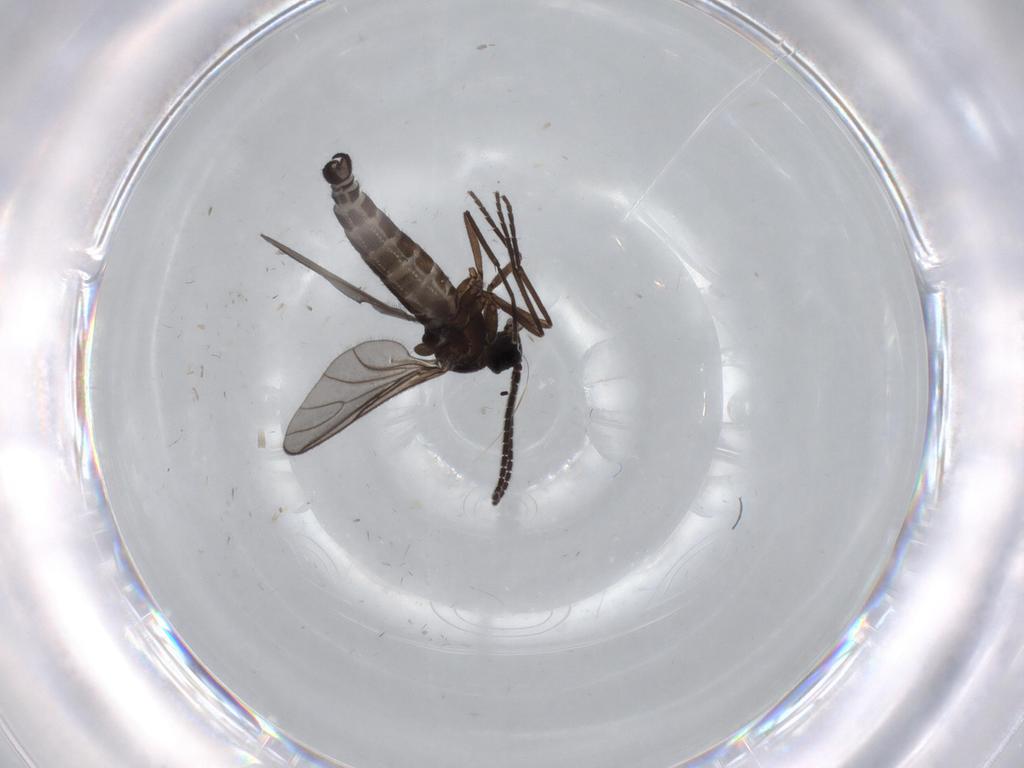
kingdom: Animalia
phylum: Arthropoda
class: Insecta
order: Diptera
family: Sciaridae
